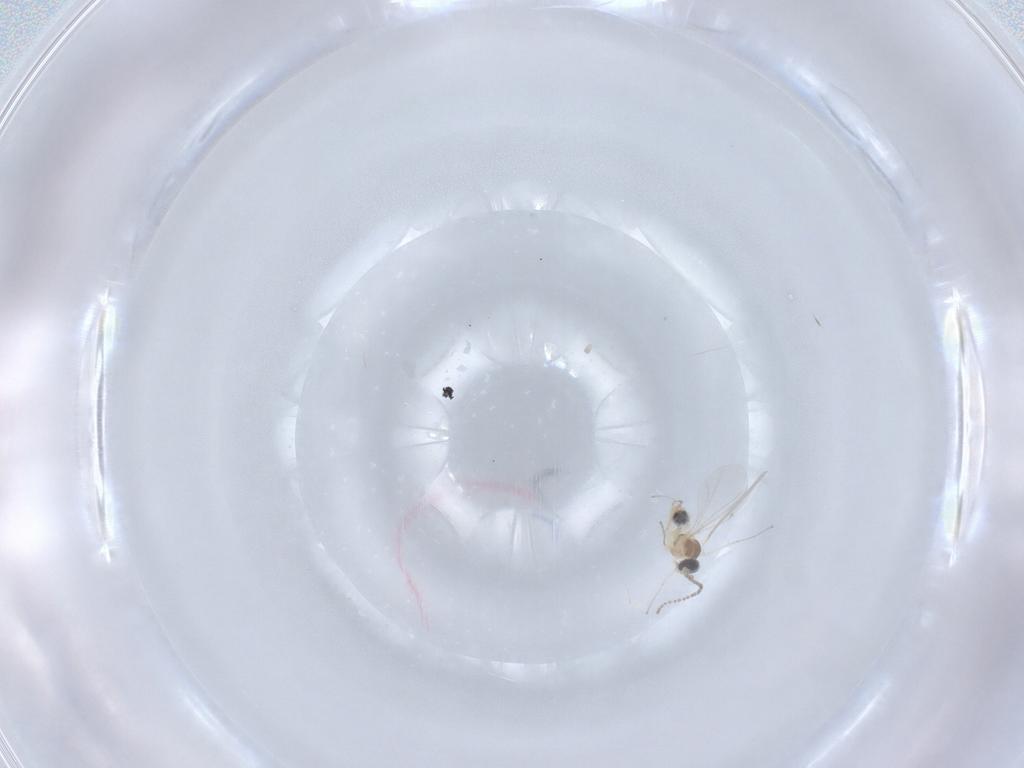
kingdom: Animalia
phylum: Arthropoda
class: Insecta
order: Diptera
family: Cecidomyiidae
